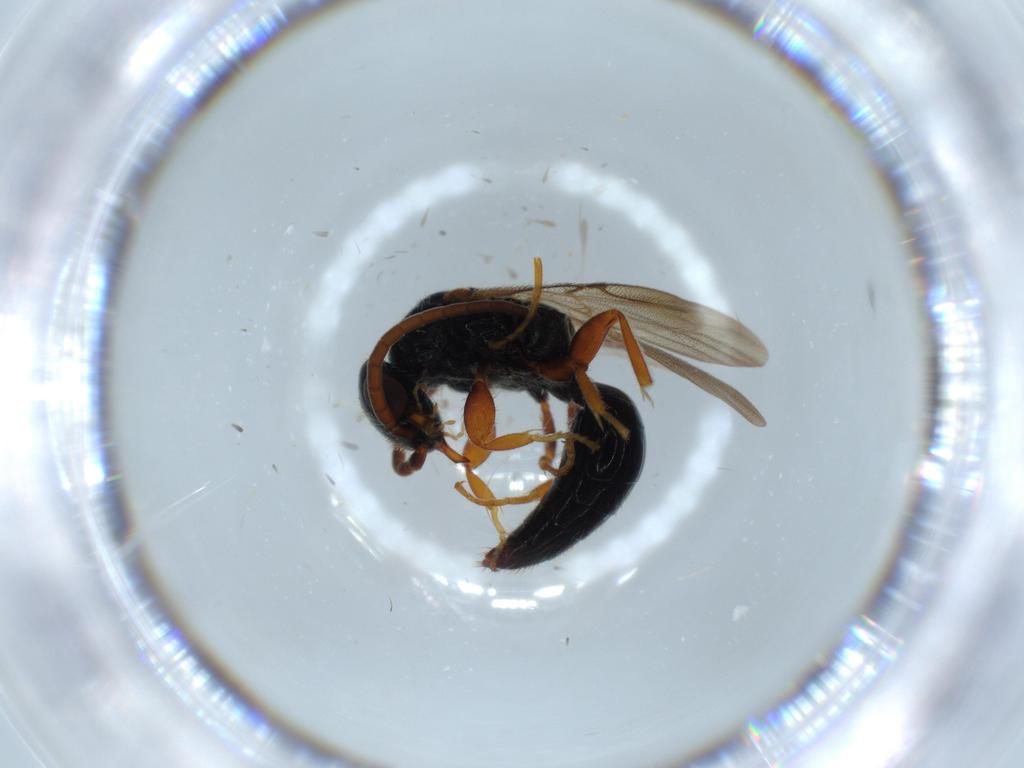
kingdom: Animalia
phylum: Arthropoda
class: Insecta
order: Hymenoptera
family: Bethylidae
